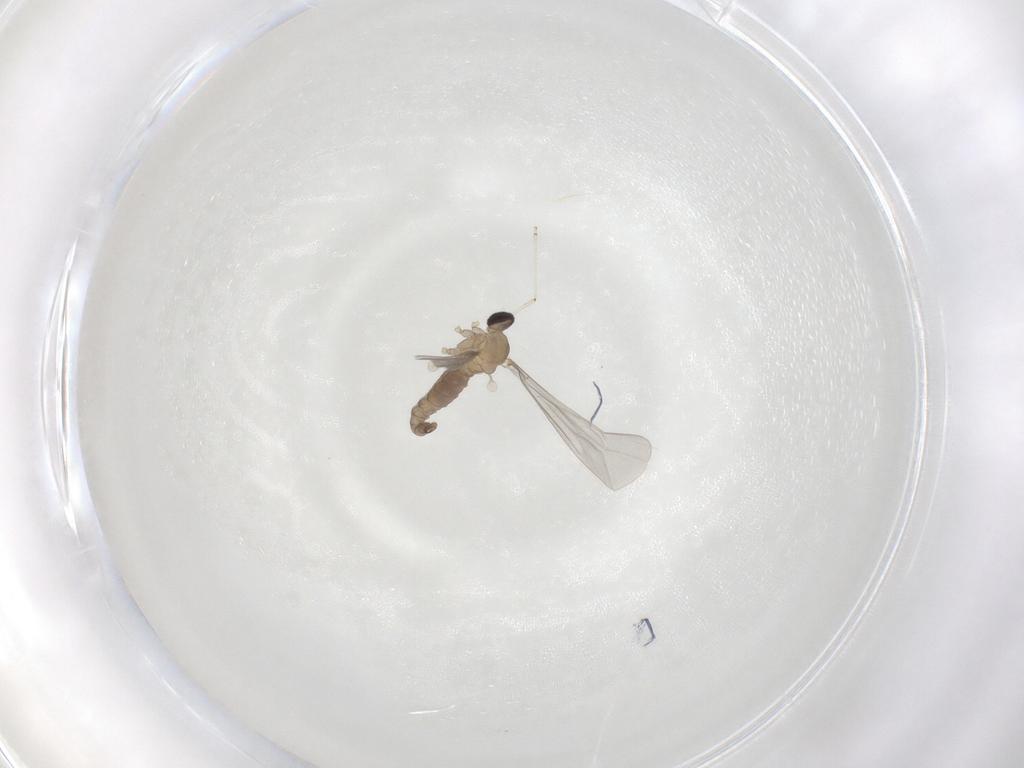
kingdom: Animalia
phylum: Arthropoda
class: Insecta
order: Diptera
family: Cecidomyiidae
